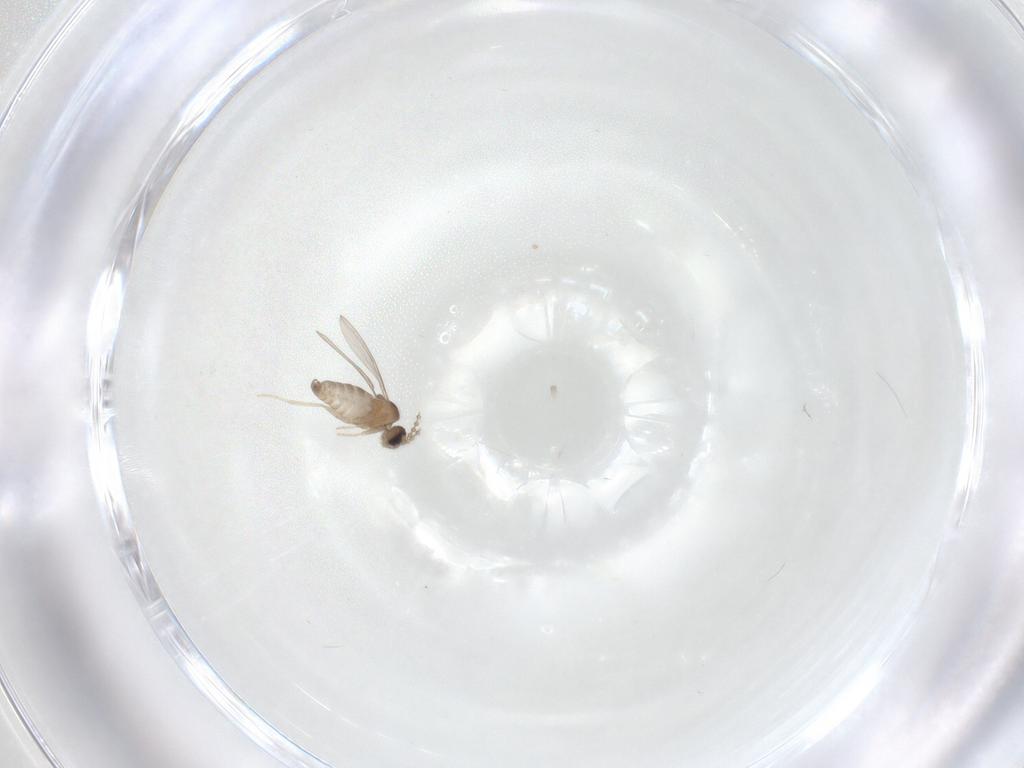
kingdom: Animalia
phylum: Arthropoda
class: Insecta
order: Diptera
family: Cecidomyiidae
